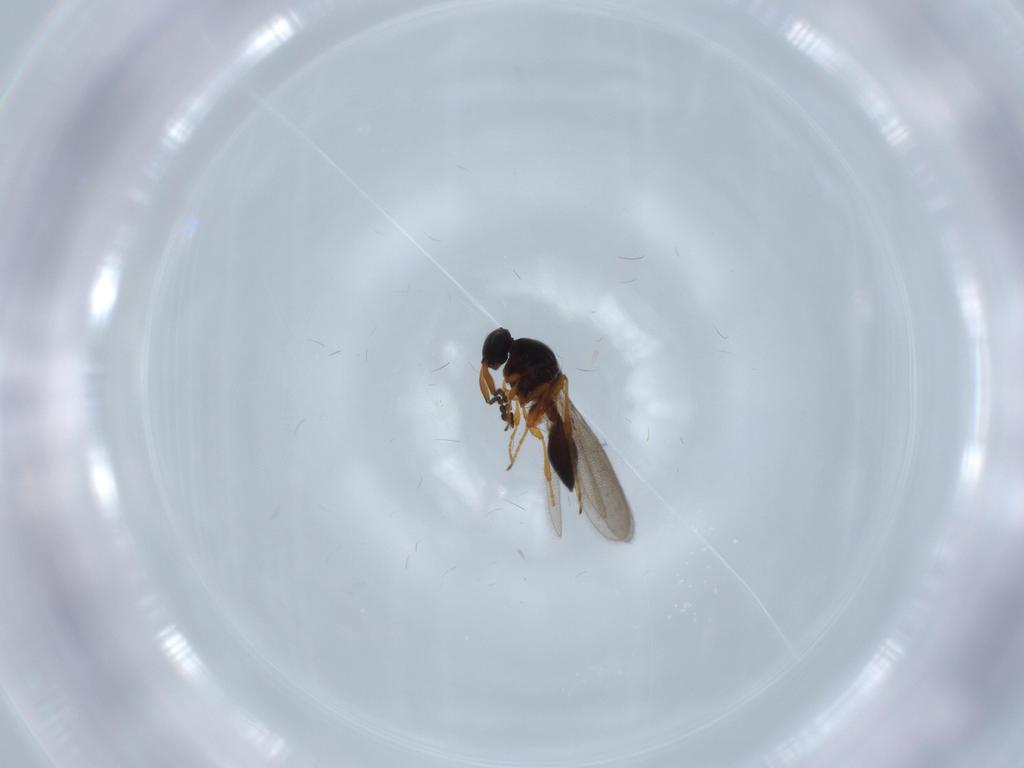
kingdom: Animalia
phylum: Arthropoda
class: Insecta
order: Hymenoptera
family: Platygastridae
